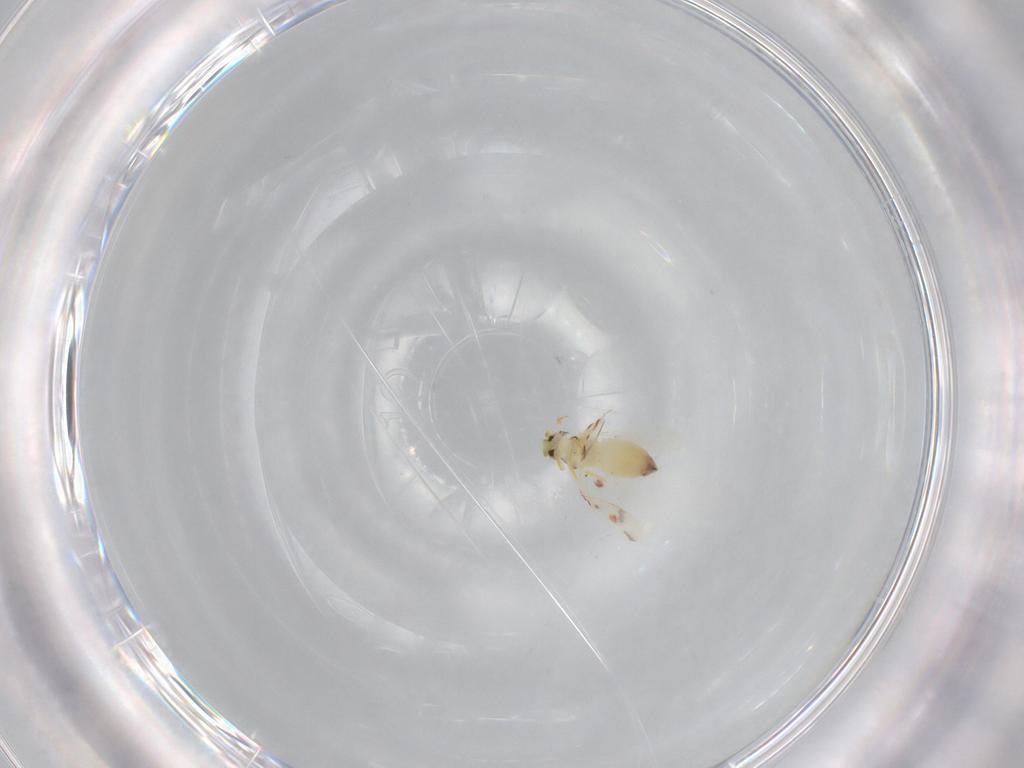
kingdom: Animalia
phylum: Arthropoda
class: Insecta
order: Hemiptera
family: Aleyrodidae
